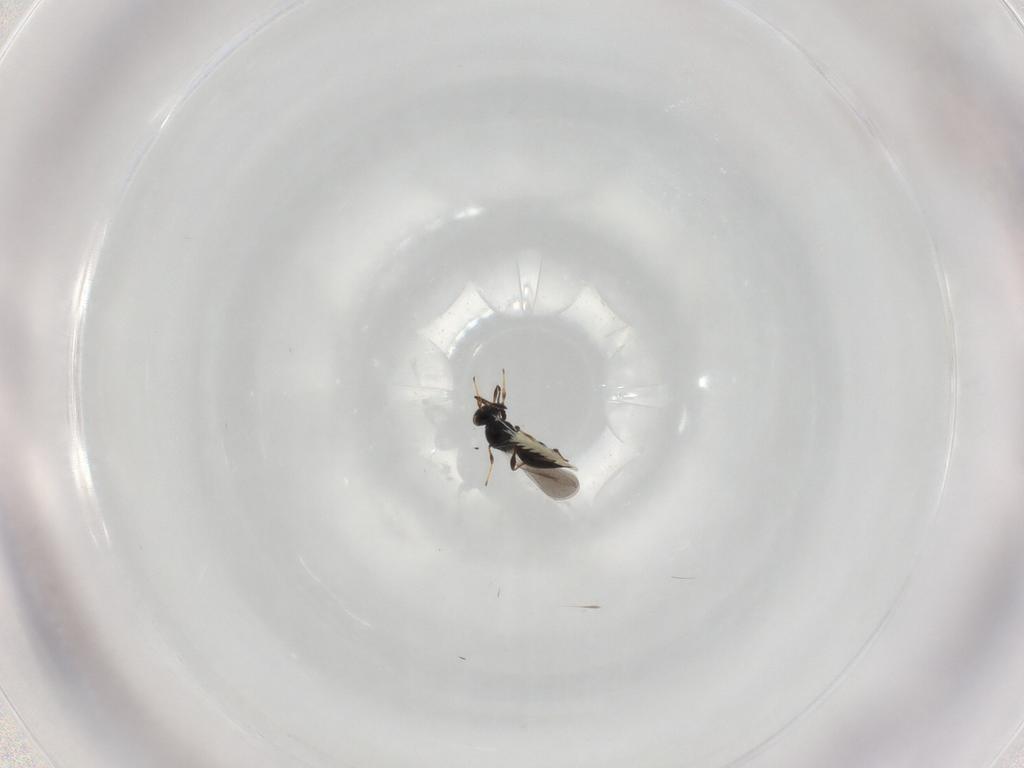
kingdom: Animalia
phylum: Arthropoda
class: Insecta
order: Hymenoptera
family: Platygastridae
